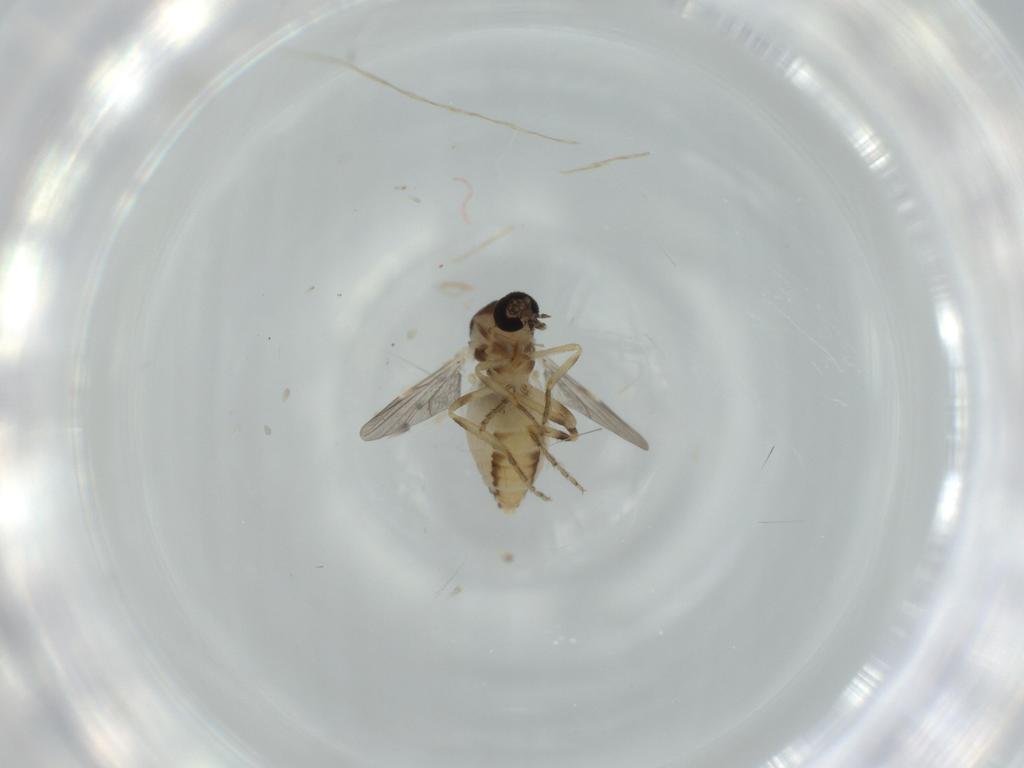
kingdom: Animalia
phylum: Arthropoda
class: Insecta
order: Diptera
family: Ceratopogonidae
